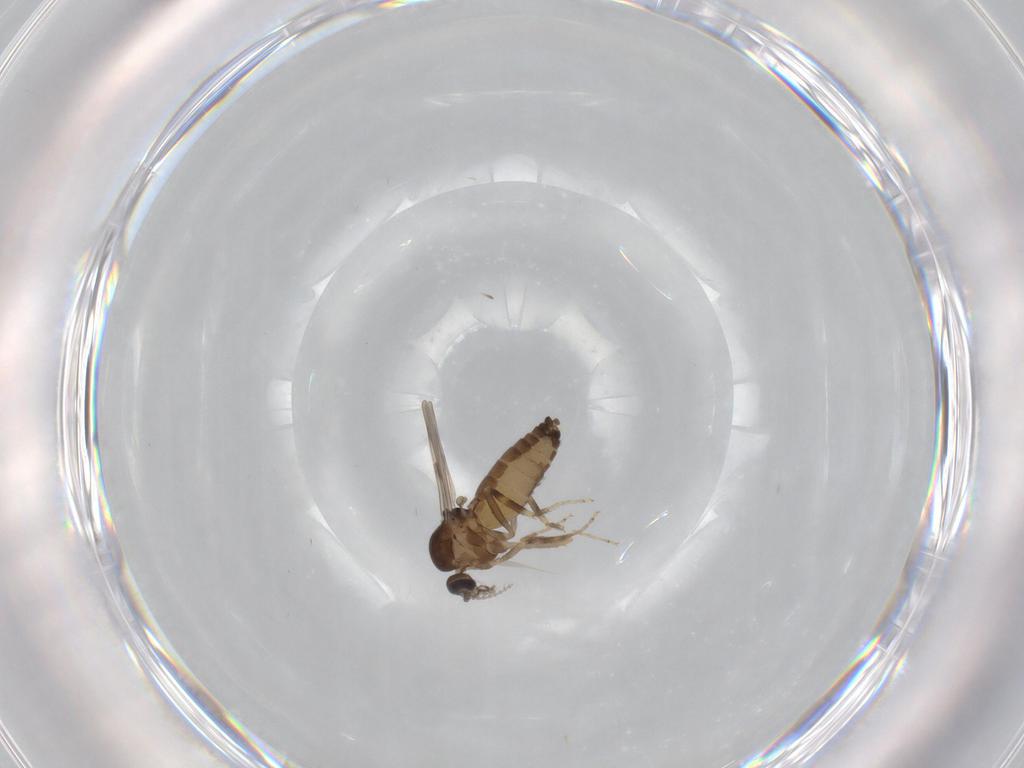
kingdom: Animalia
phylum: Arthropoda
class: Insecta
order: Diptera
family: Ceratopogonidae
